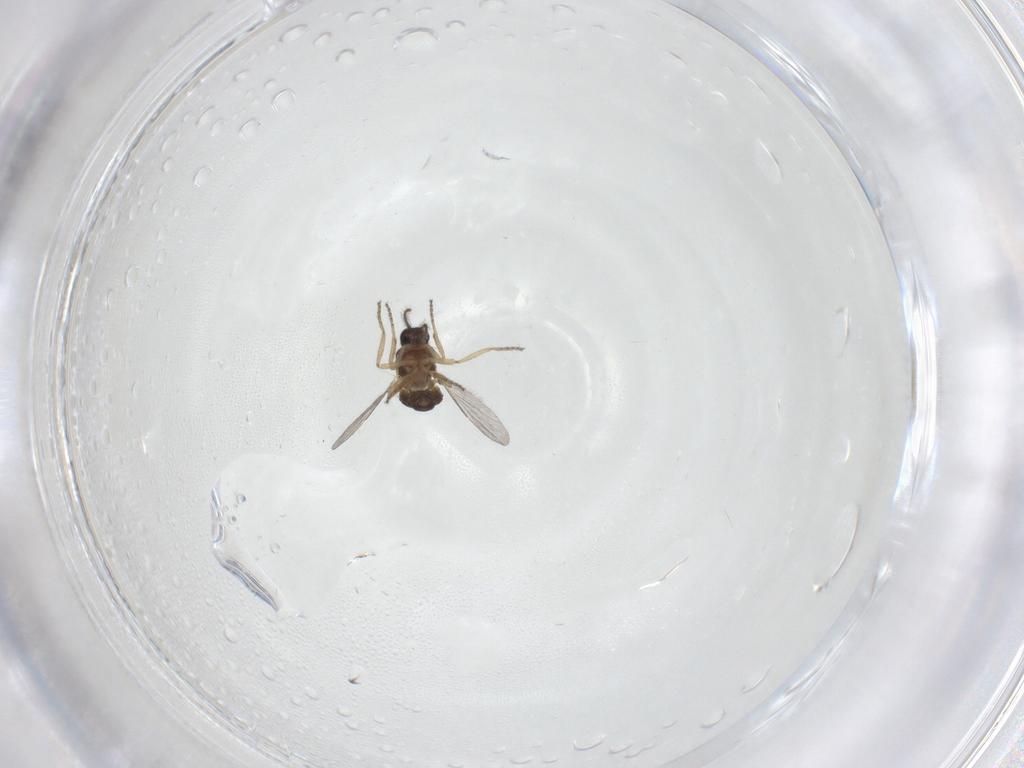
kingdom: Animalia
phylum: Arthropoda
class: Insecta
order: Diptera
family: Ceratopogonidae
